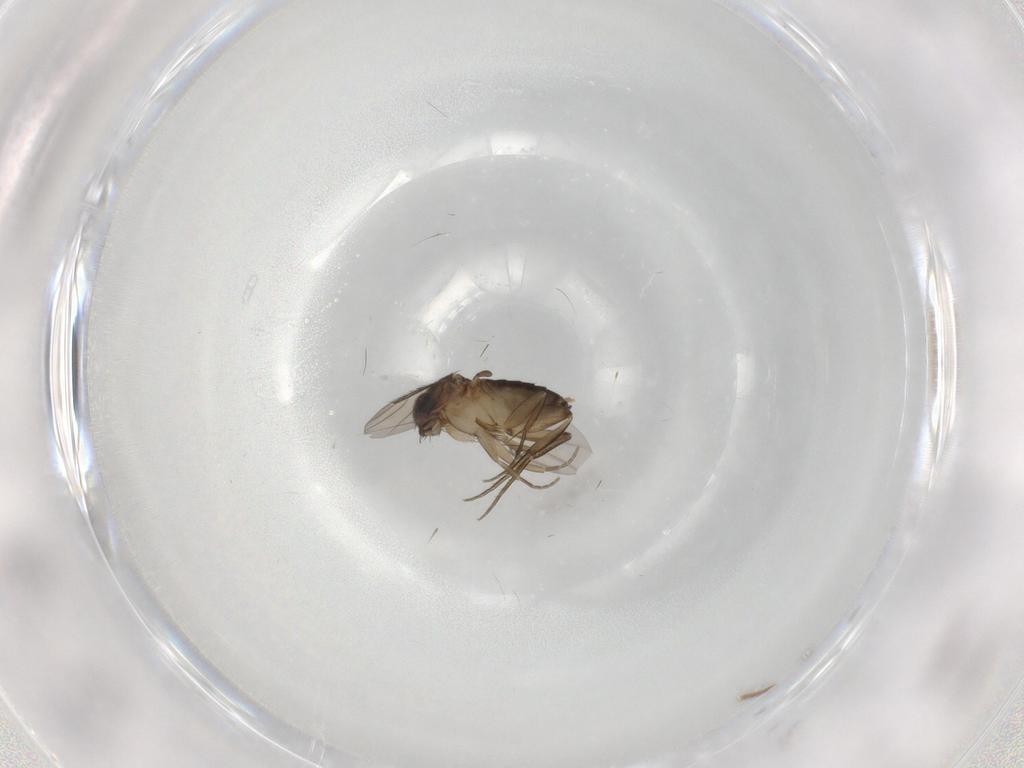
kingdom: Animalia
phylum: Arthropoda
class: Insecta
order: Diptera
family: Phoridae
